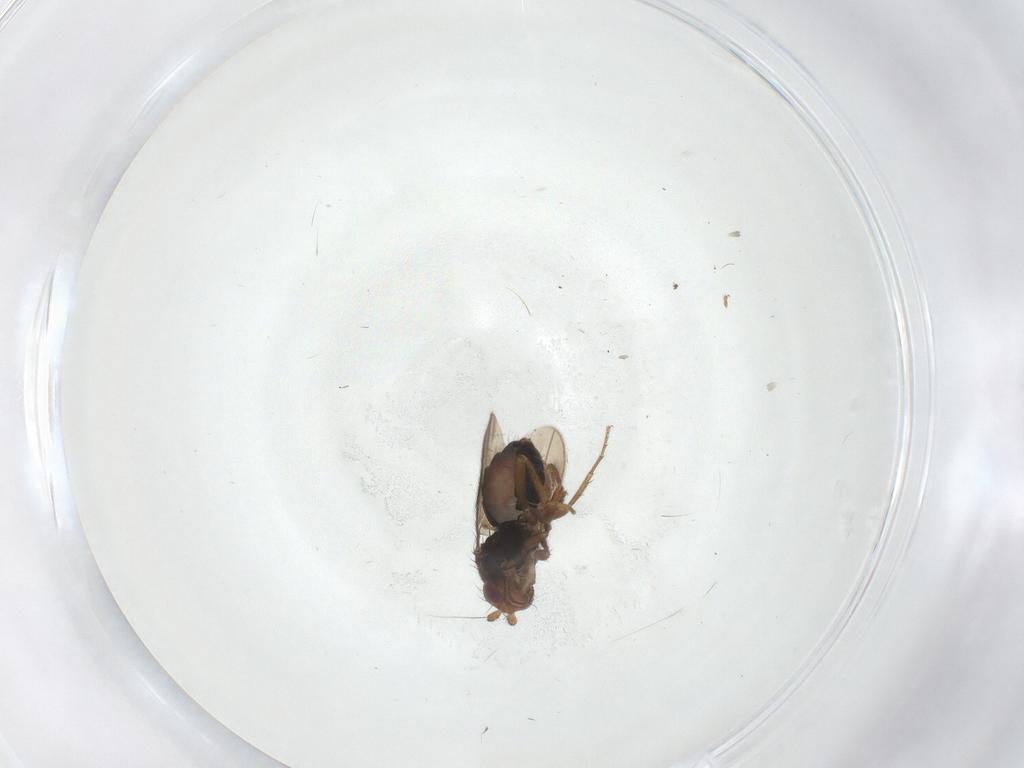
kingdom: Animalia
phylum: Arthropoda
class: Insecta
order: Diptera
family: Sphaeroceridae
